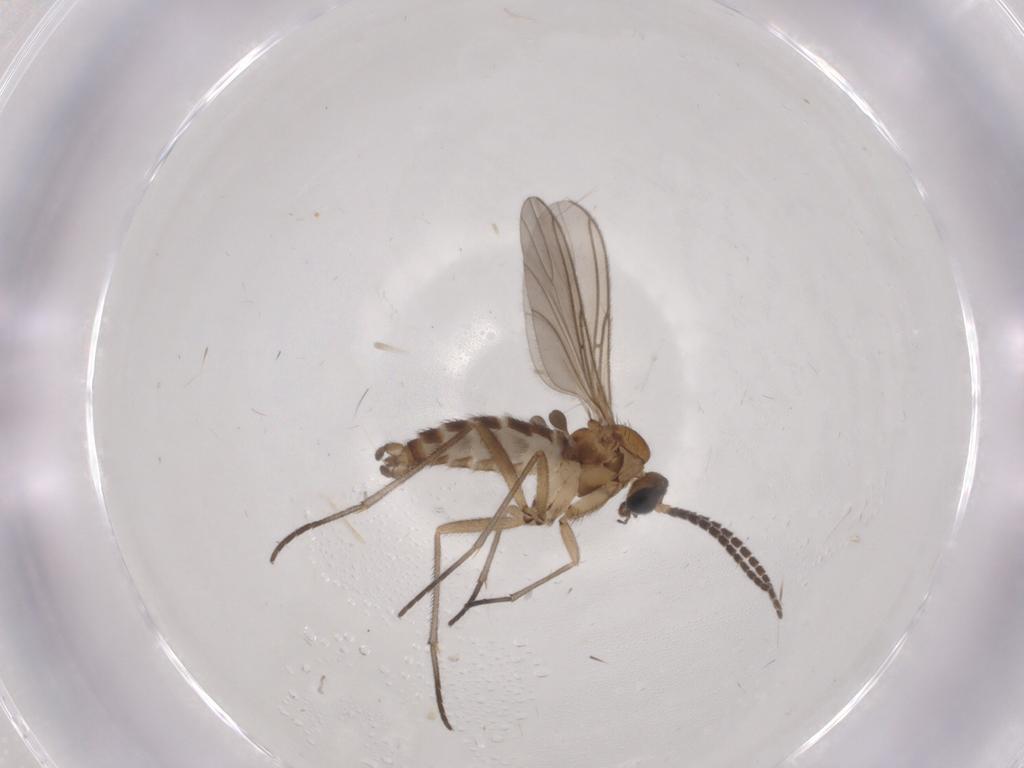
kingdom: Animalia
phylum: Arthropoda
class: Insecta
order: Diptera
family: Sciaridae
